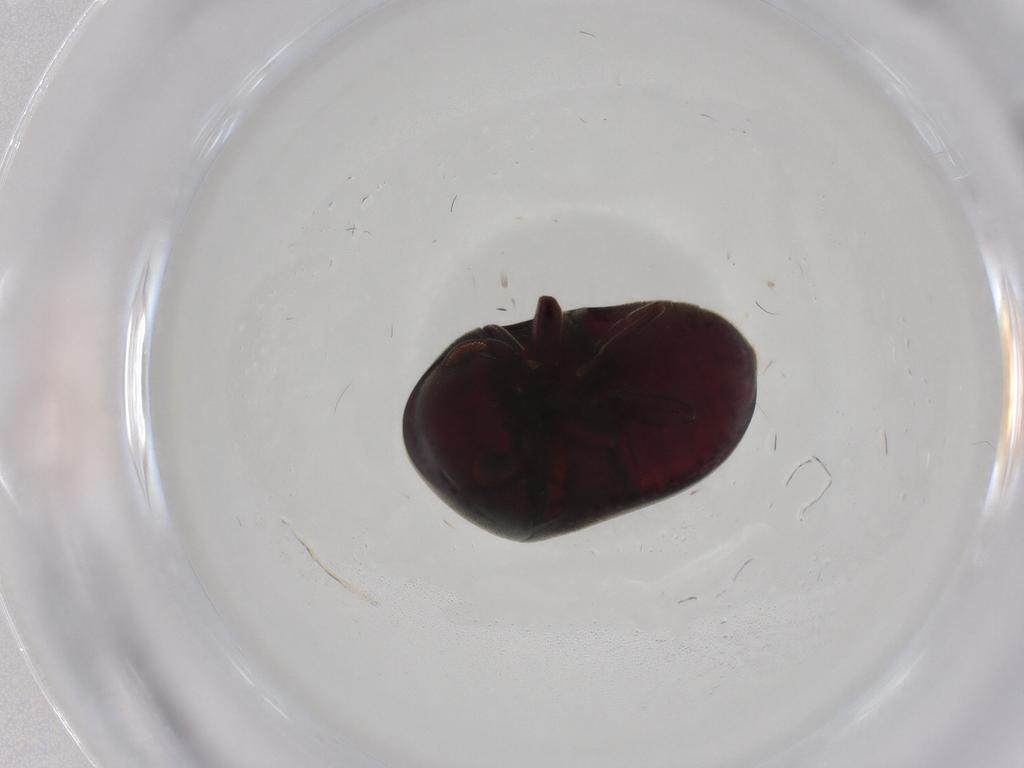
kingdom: Animalia
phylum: Arthropoda
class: Insecta
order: Coleoptera
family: Ptinidae
